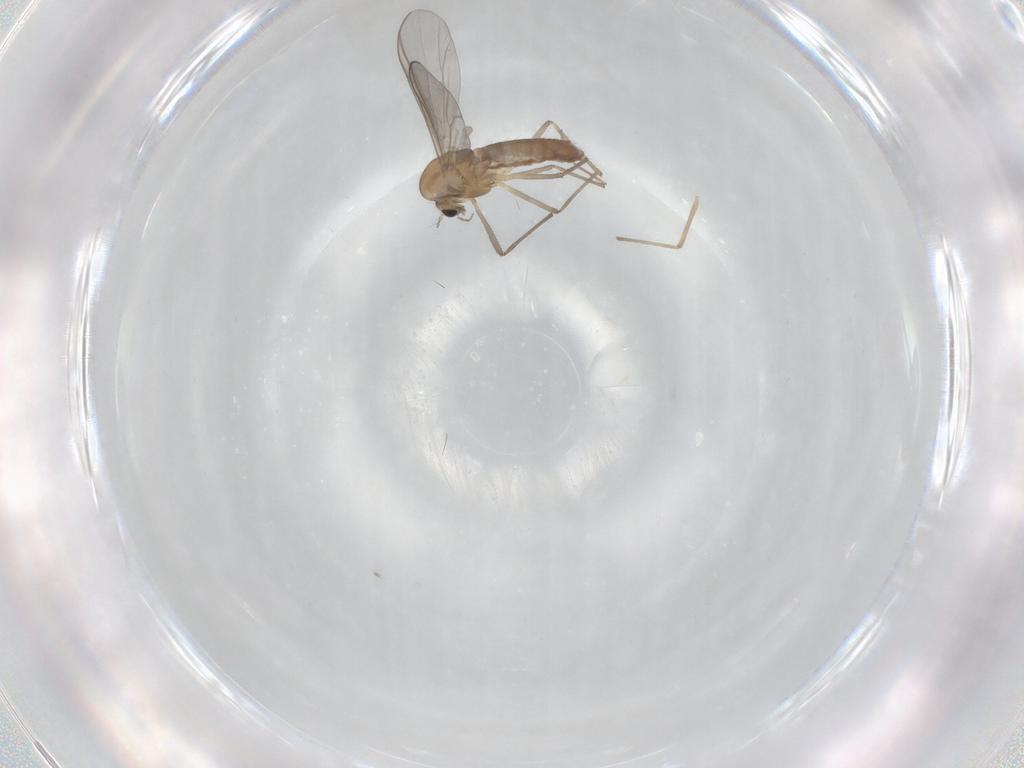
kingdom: Animalia
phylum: Arthropoda
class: Insecta
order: Diptera
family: Chironomidae
